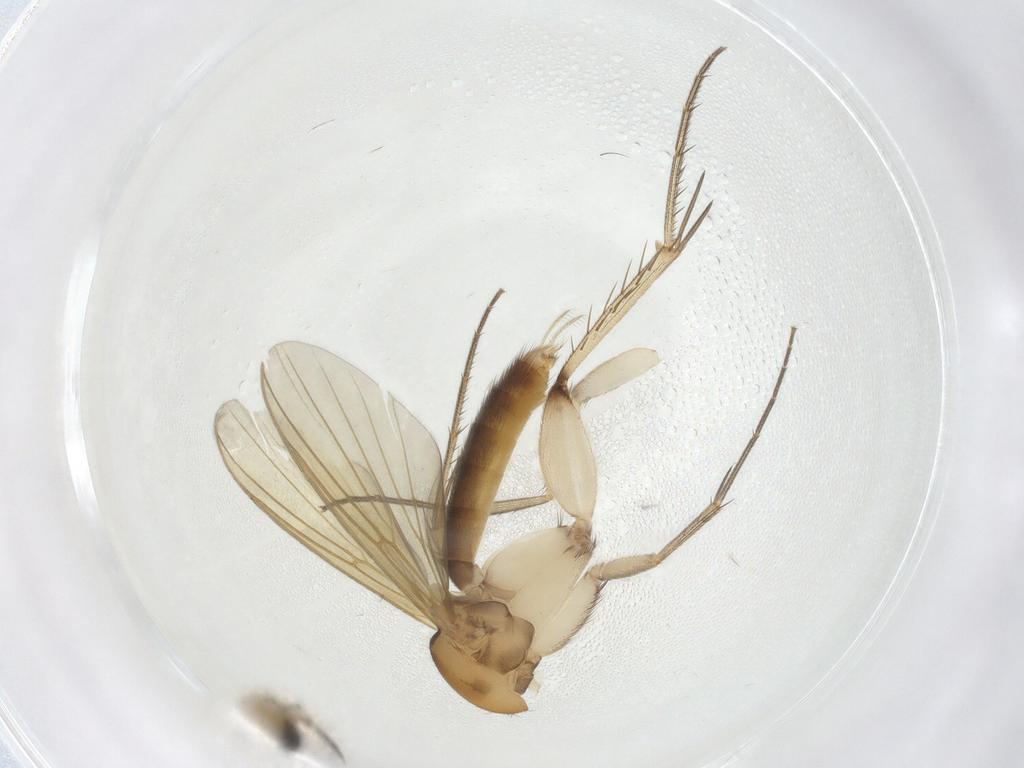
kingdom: Animalia
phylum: Arthropoda
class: Insecta
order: Diptera
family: Mycetophilidae
